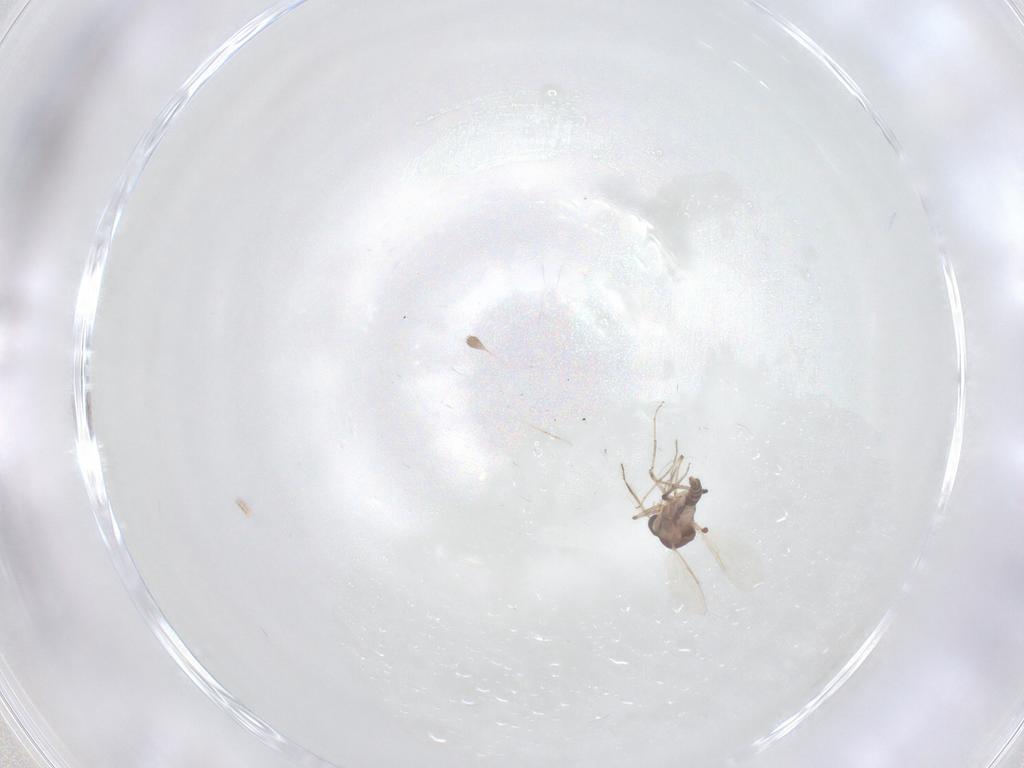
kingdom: Animalia
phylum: Arthropoda
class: Insecta
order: Diptera
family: Ceratopogonidae
